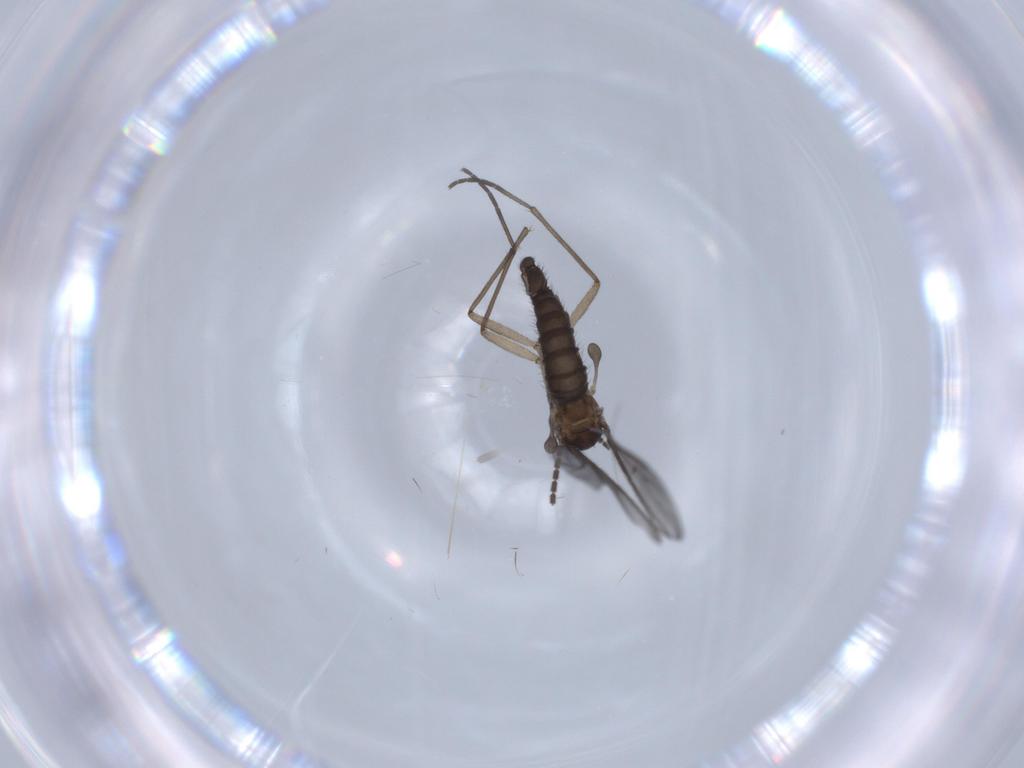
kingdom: Animalia
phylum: Arthropoda
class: Insecta
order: Diptera
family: Sciaridae
